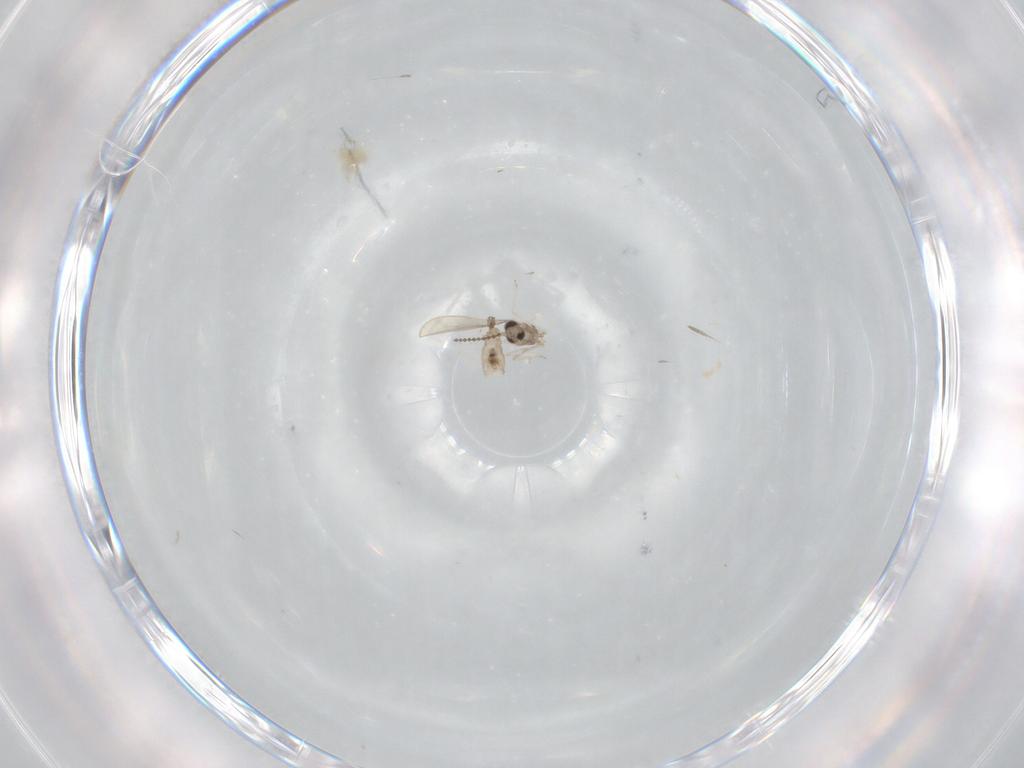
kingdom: Animalia
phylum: Arthropoda
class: Insecta
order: Diptera
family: Cecidomyiidae
